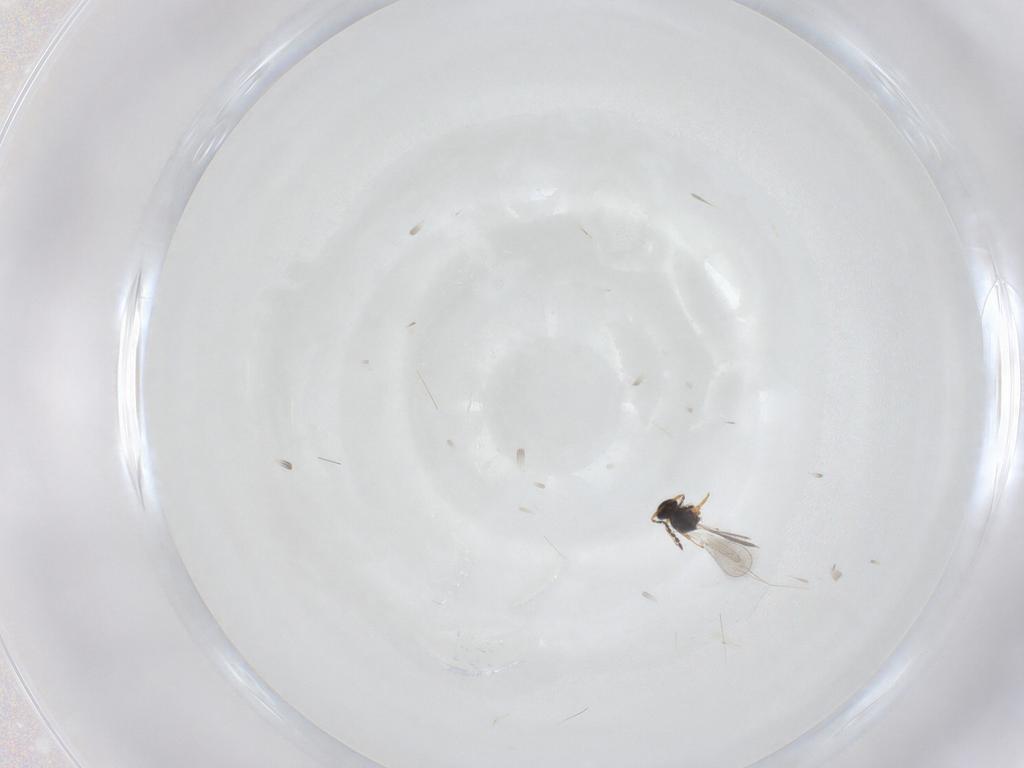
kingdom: Animalia
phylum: Arthropoda
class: Insecta
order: Hymenoptera
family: Platygastridae
